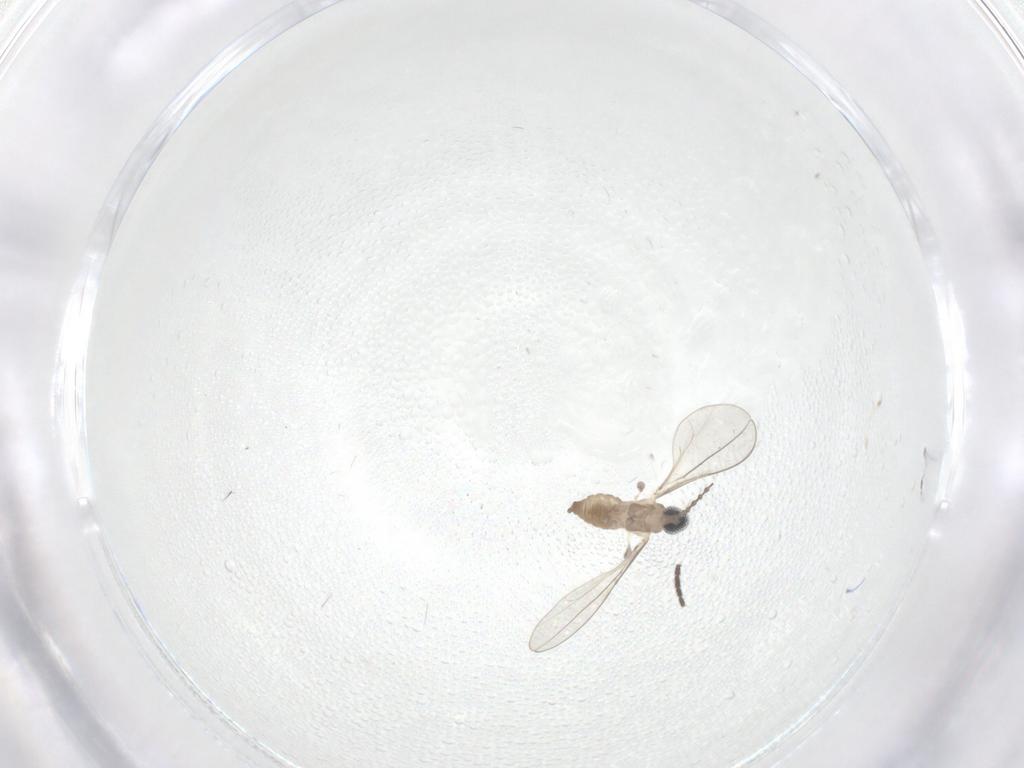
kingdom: Animalia
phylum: Arthropoda
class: Insecta
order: Diptera
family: Cecidomyiidae
